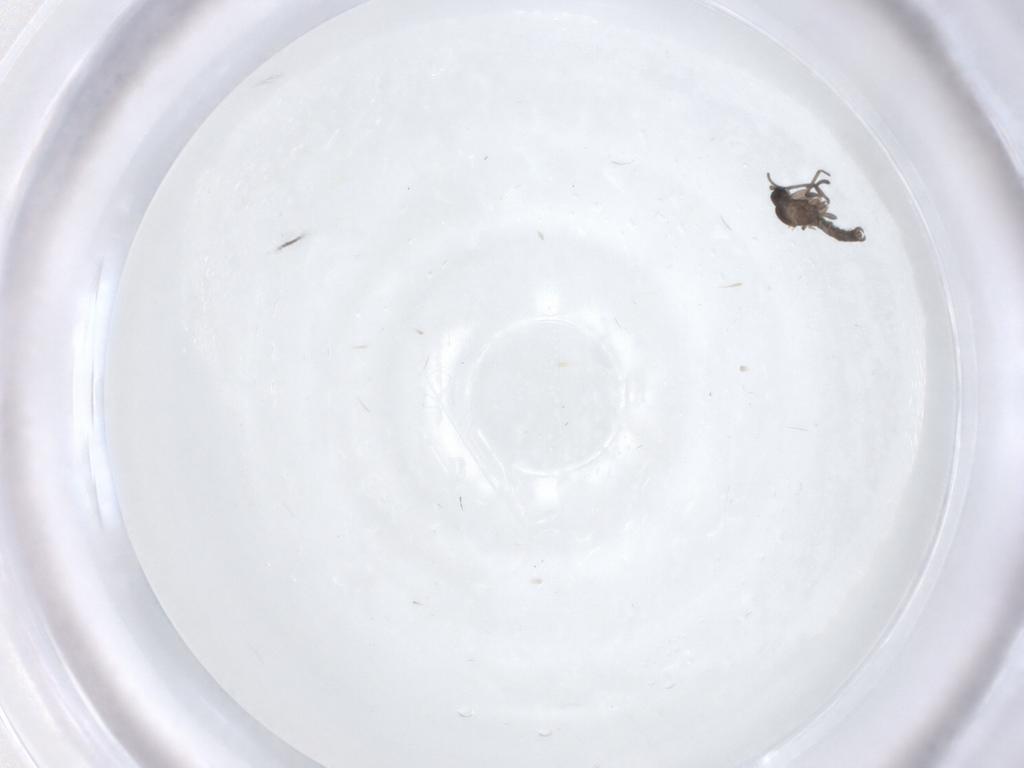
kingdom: Animalia
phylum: Arthropoda
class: Insecta
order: Diptera
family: Sciaridae
